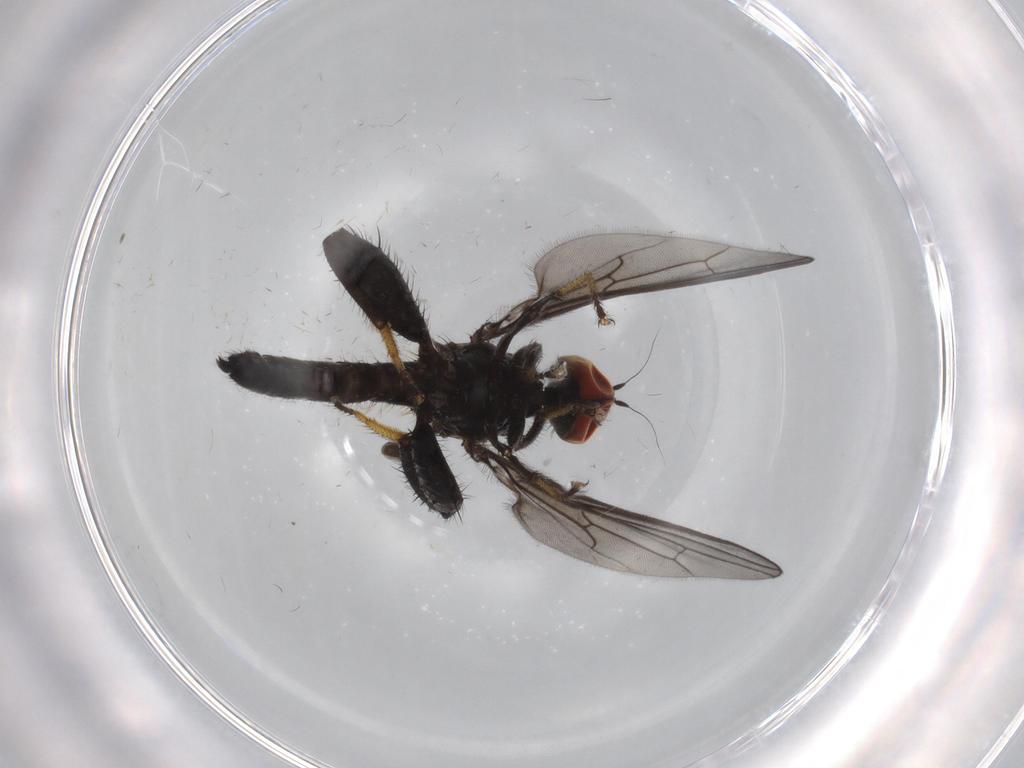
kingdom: Animalia
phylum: Arthropoda
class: Insecta
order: Diptera
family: Hybotidae
